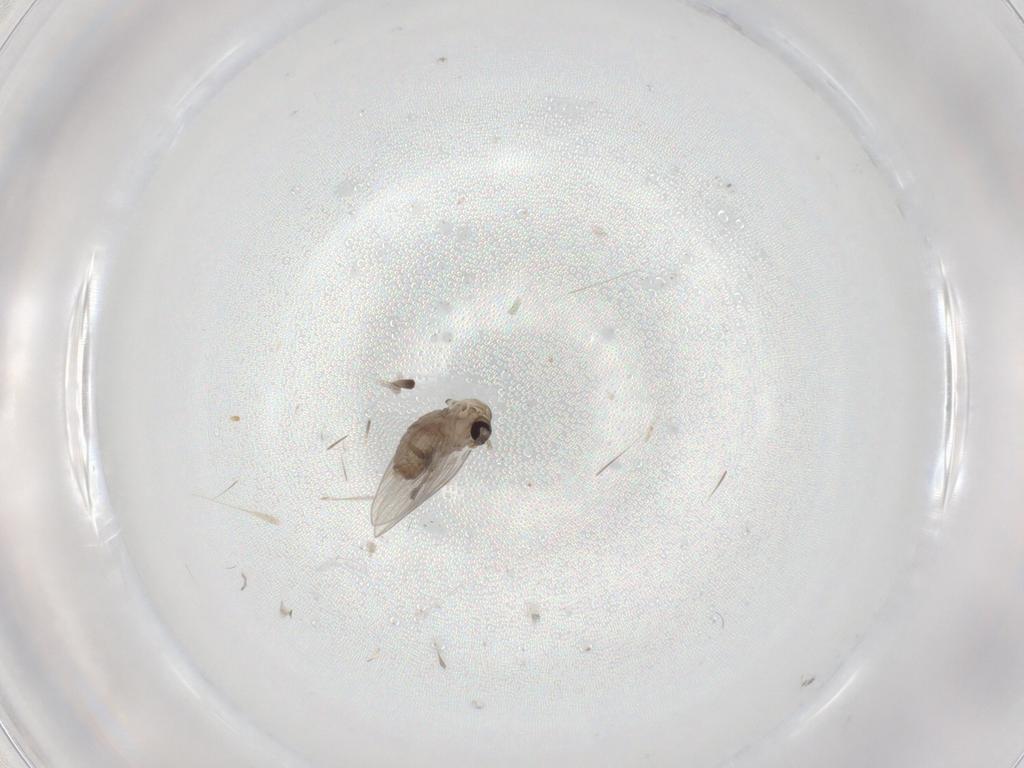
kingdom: Animalia
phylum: Arthropoda
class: Insecta
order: Diptera
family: Psychodidae
